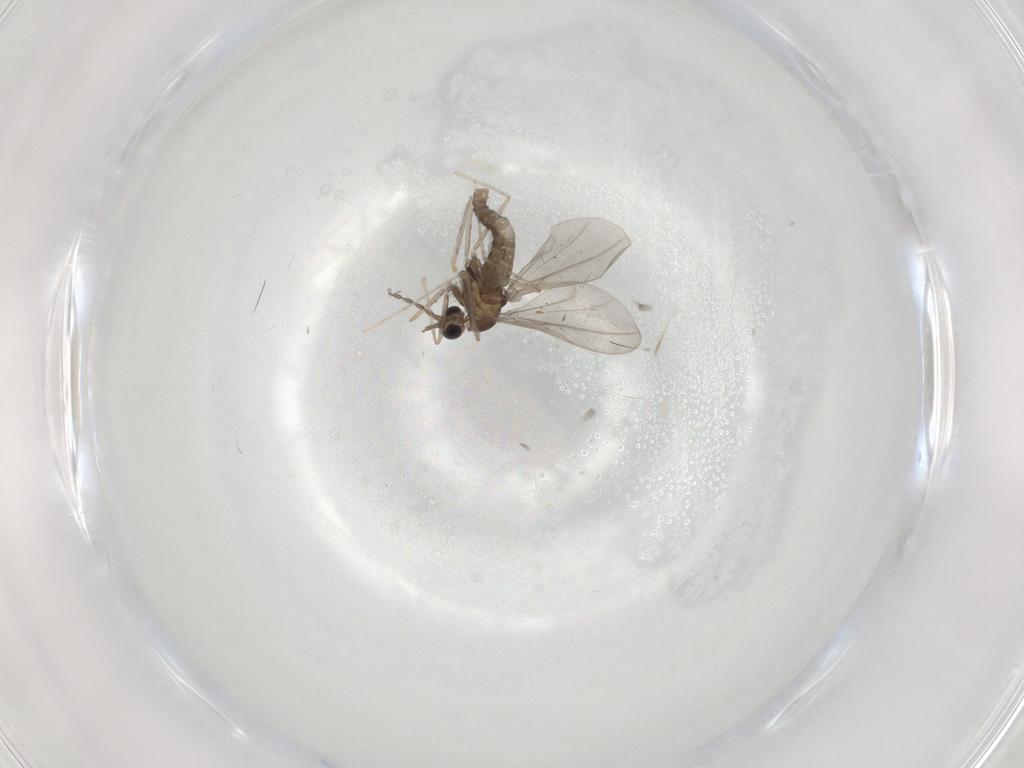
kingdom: Animalia
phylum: Arthropoda
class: Insecta
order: Diptera
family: Cecidomyiidae
